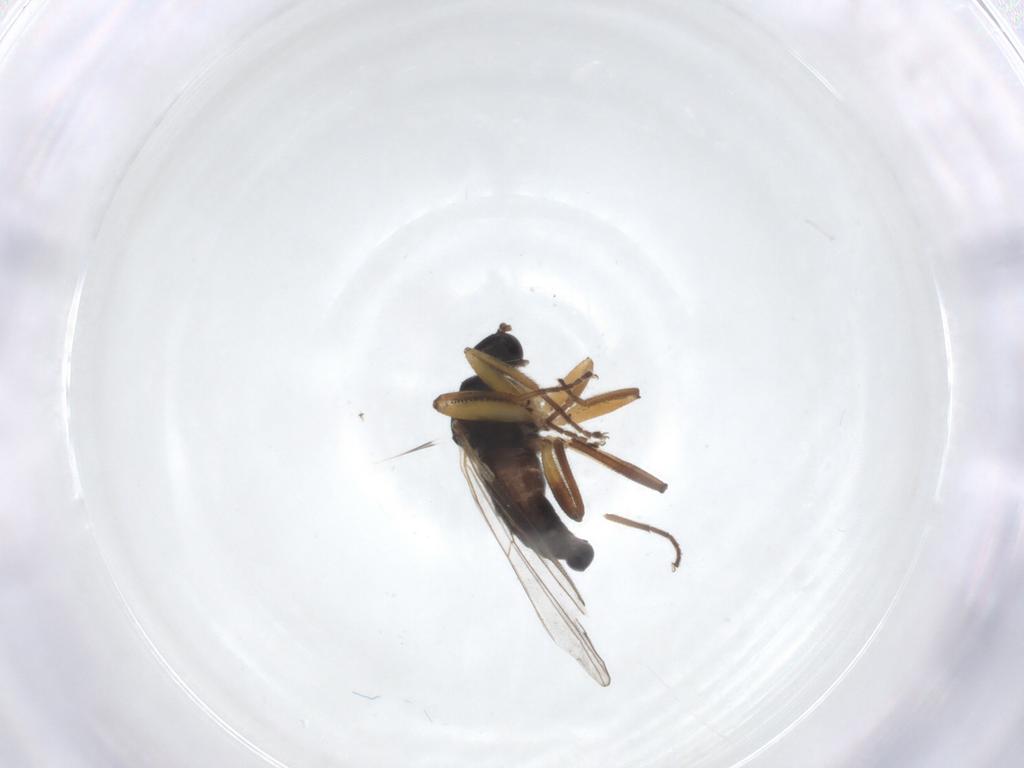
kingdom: Animalia
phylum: Arthropoda
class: Insecta
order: Diptera
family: Hybotidae
